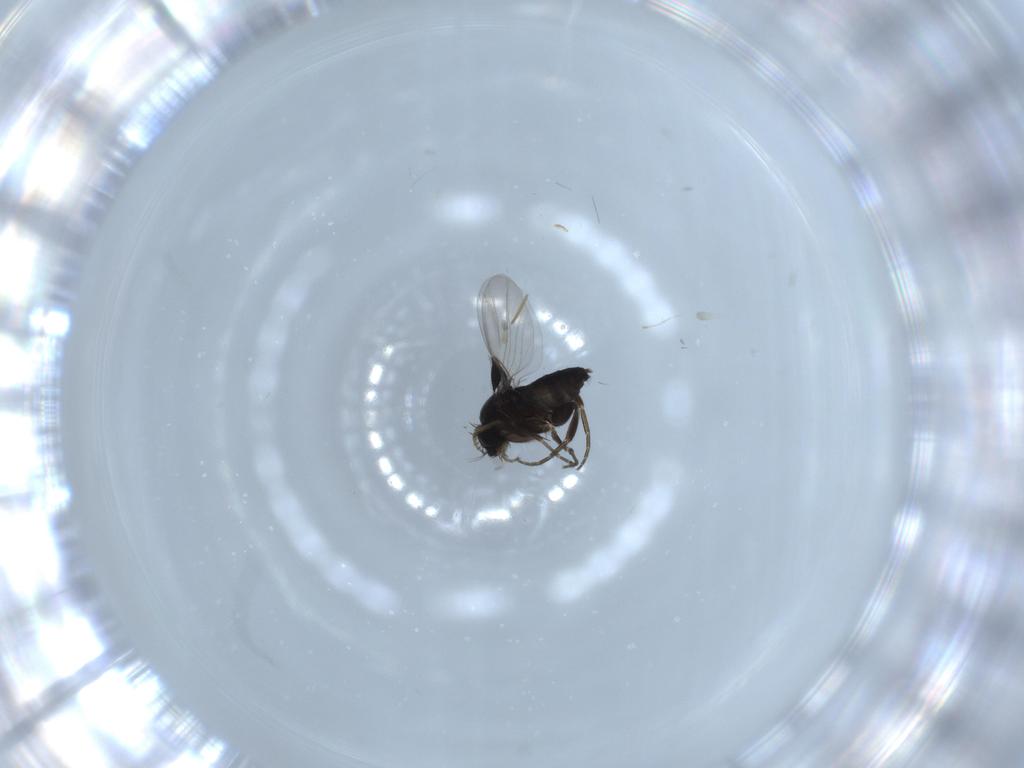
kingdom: Animalia
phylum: Arthropoda
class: Insecta
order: Diptera
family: Phoridae
